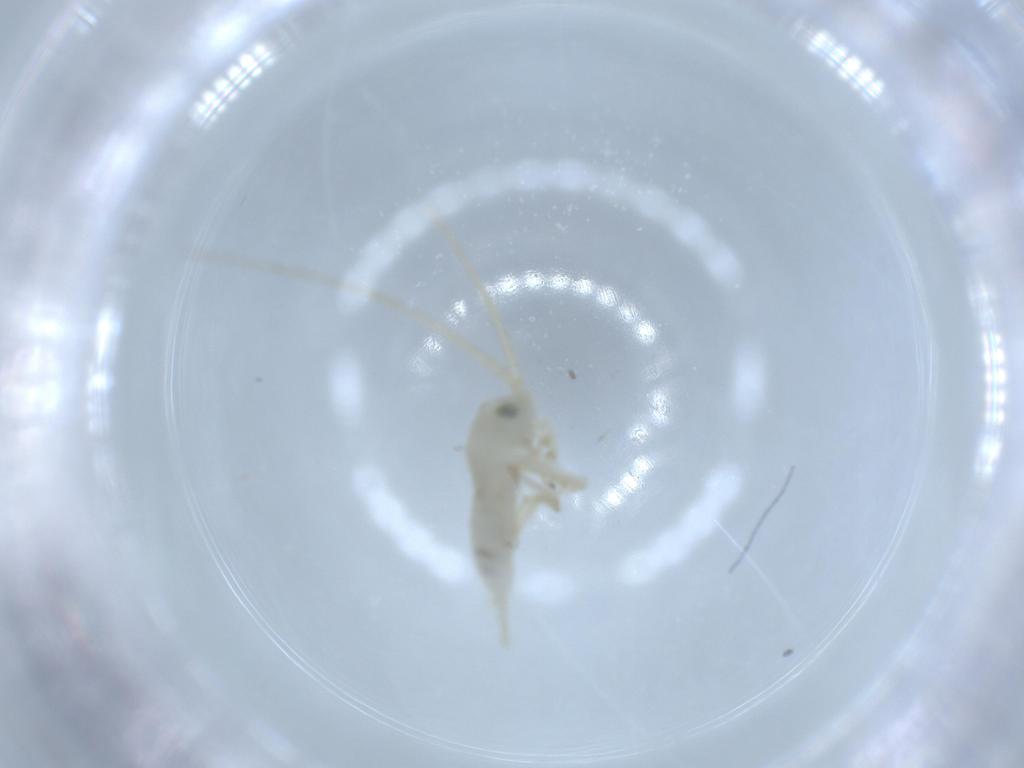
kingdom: Animalia
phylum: Arthropoda
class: Insecta
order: Orthoptera
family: Trigonidiidae
